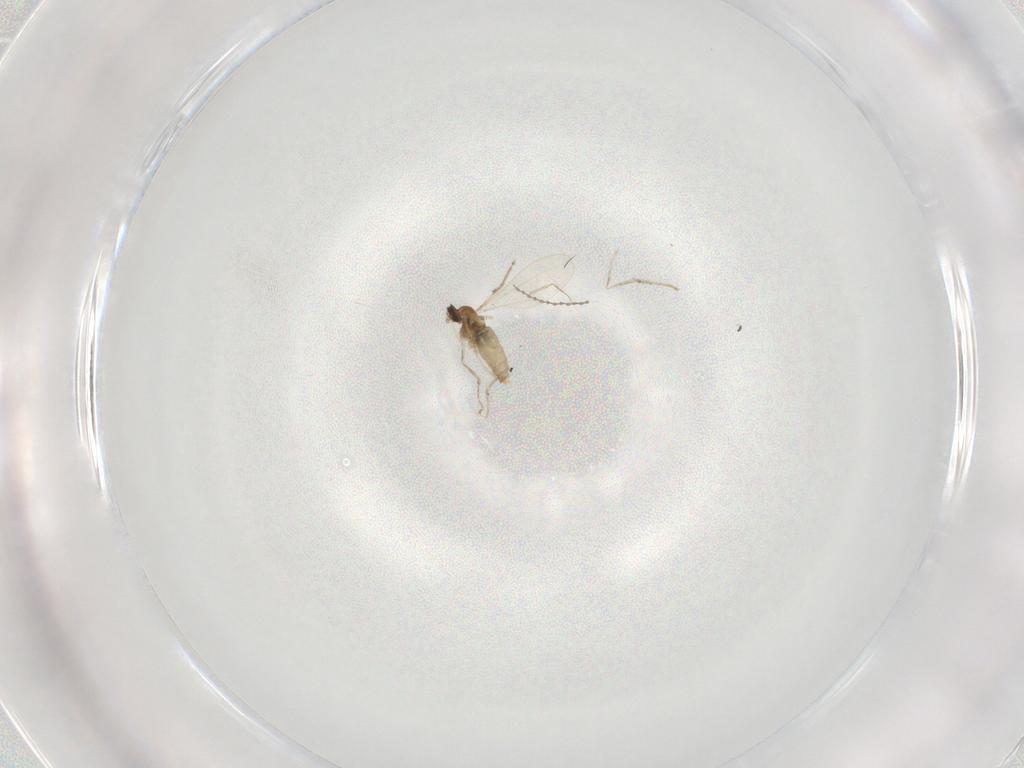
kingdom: Animalia
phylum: Arthropoda
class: Insecta
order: Diptera
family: Cecidomyiidae
